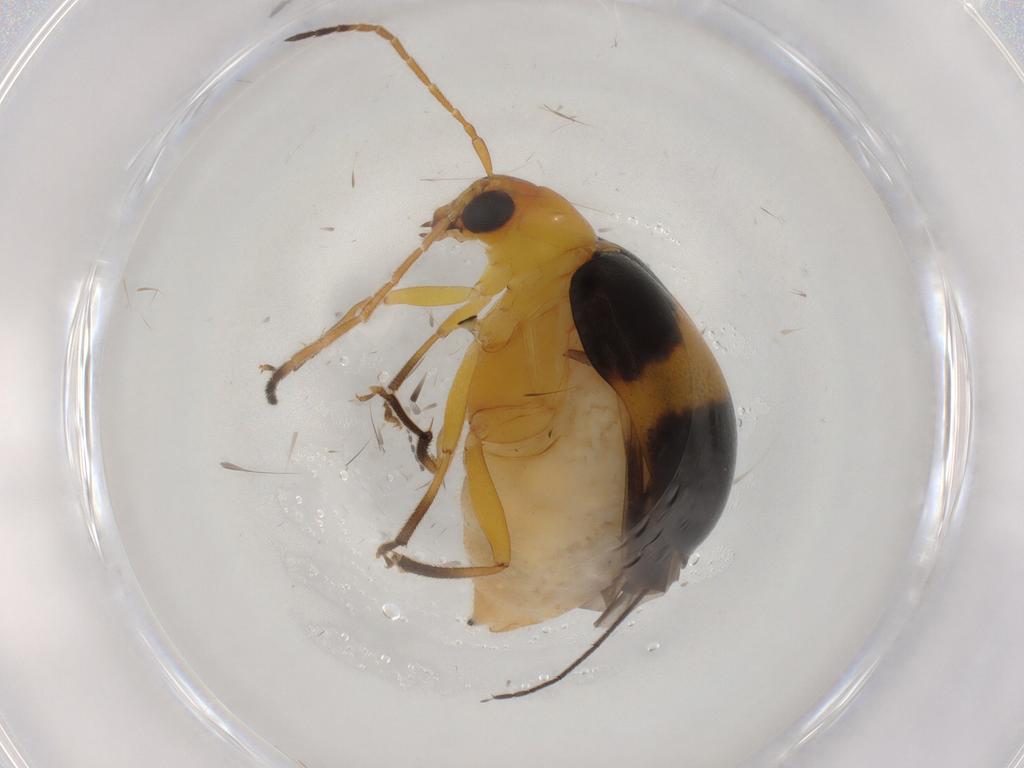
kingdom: Animalia
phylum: Arthropoda
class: Insecta
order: Coleoptera
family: Chrysomelidae
